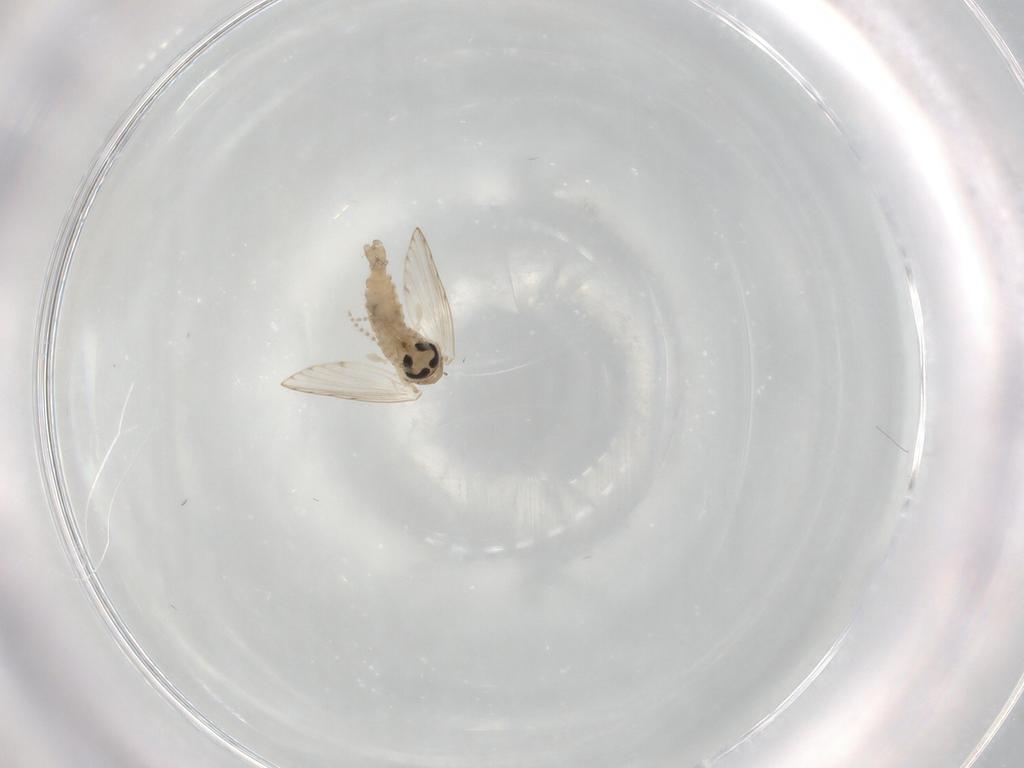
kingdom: Animalia
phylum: Arthropoda
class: Insecta
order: Diptera
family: Psychodidae
